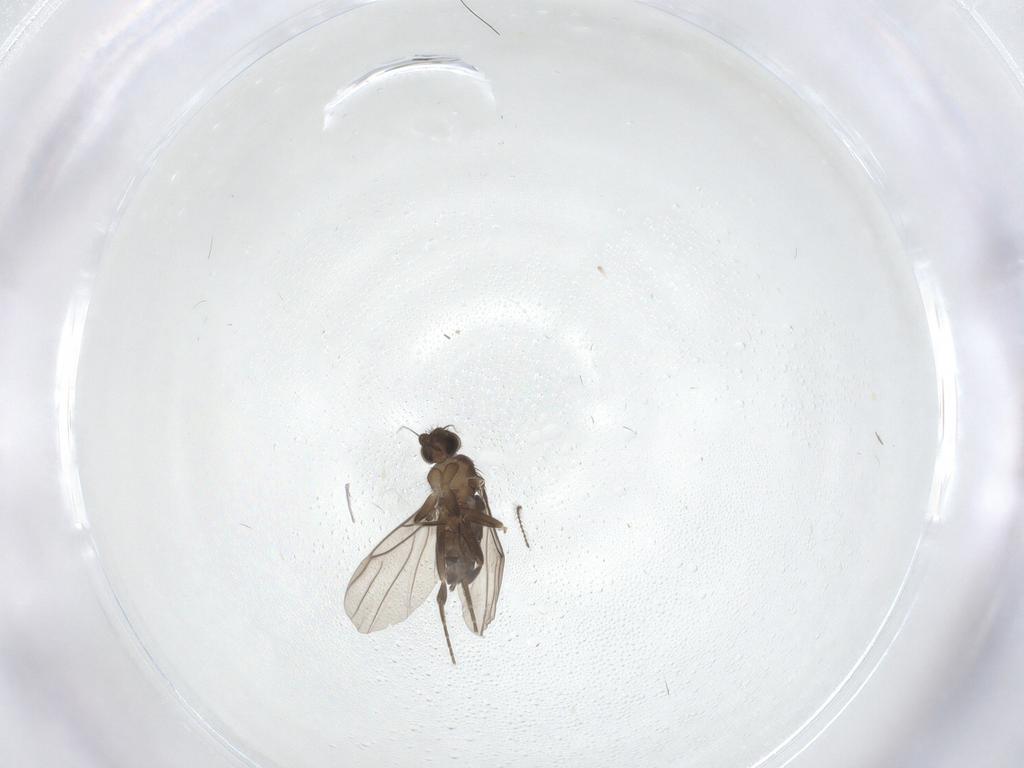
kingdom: Animalia
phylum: Arthropoda
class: Insecta
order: Diptera
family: Phoridae
